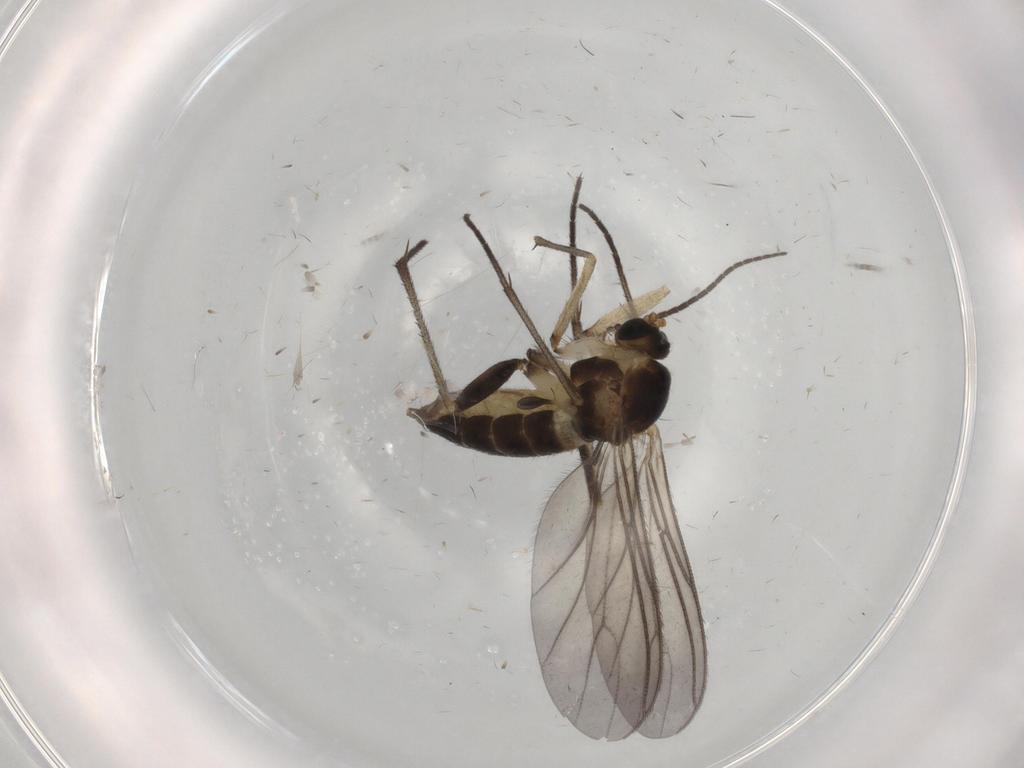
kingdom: Animalia
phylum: Arthropoda
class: Insecta
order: Diptera
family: Sciaridae
